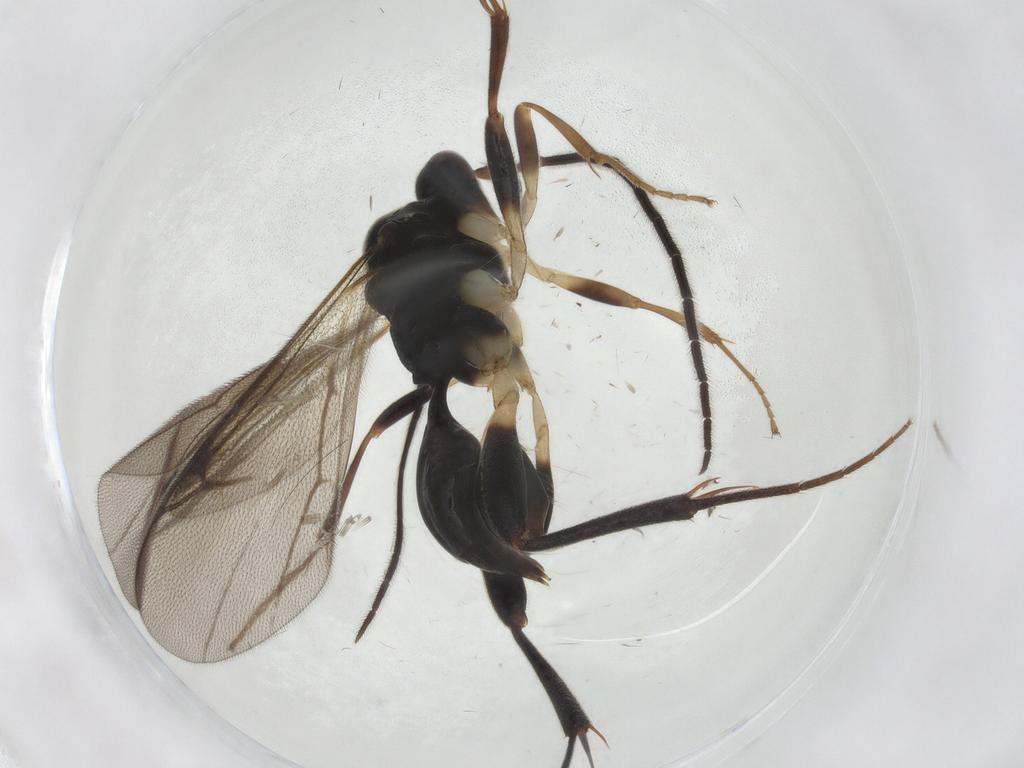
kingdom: Animalia
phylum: Arthropoda
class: Insecta
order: Hymenoptera
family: Proctotrupidae
